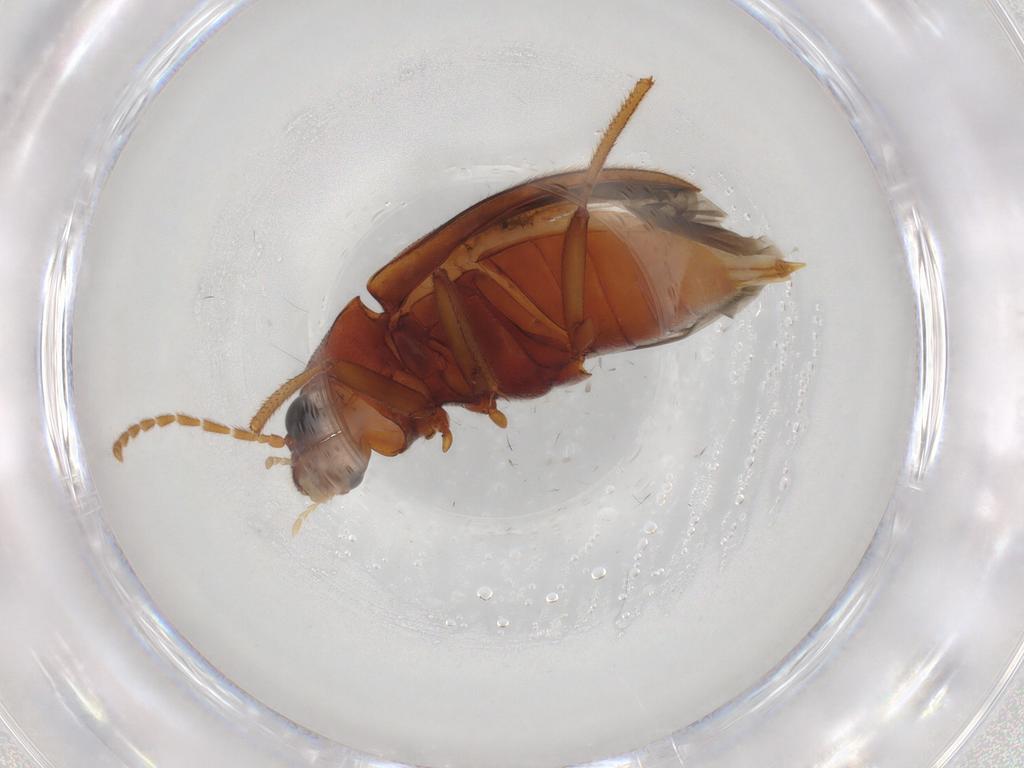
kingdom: Animalia
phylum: Arthropoda
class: Insecta
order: Coleoptera
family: Ptilodactylidae
